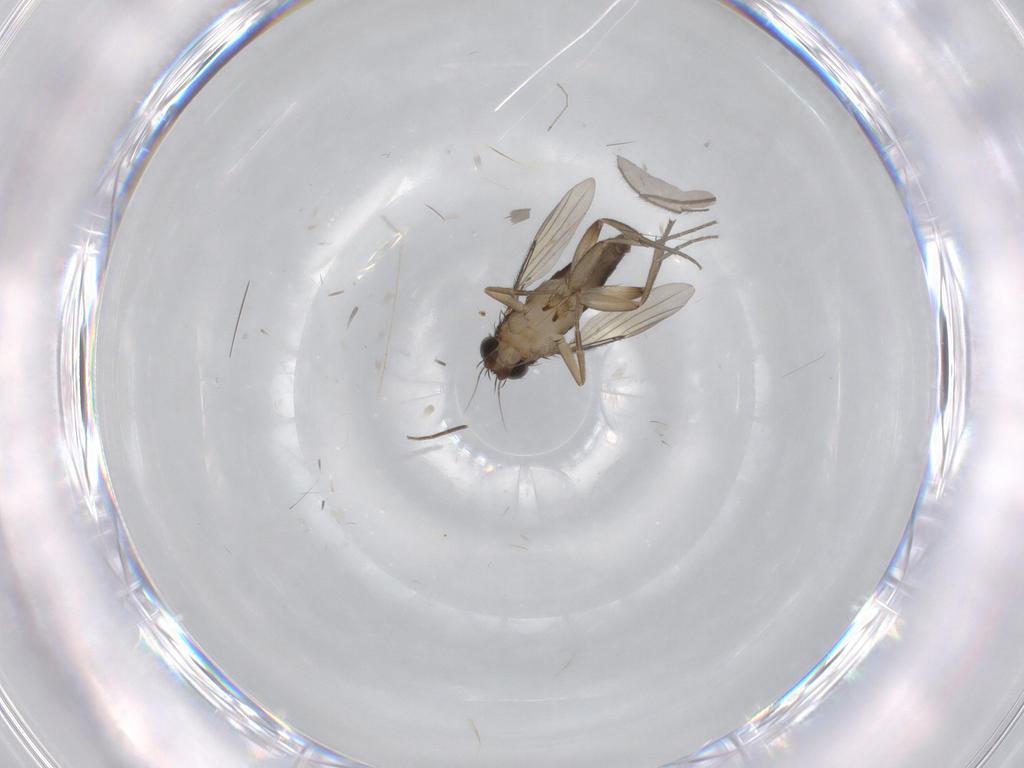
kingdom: Animalia
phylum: Arthropoda
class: Insecta
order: Diptera
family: Phoridae
